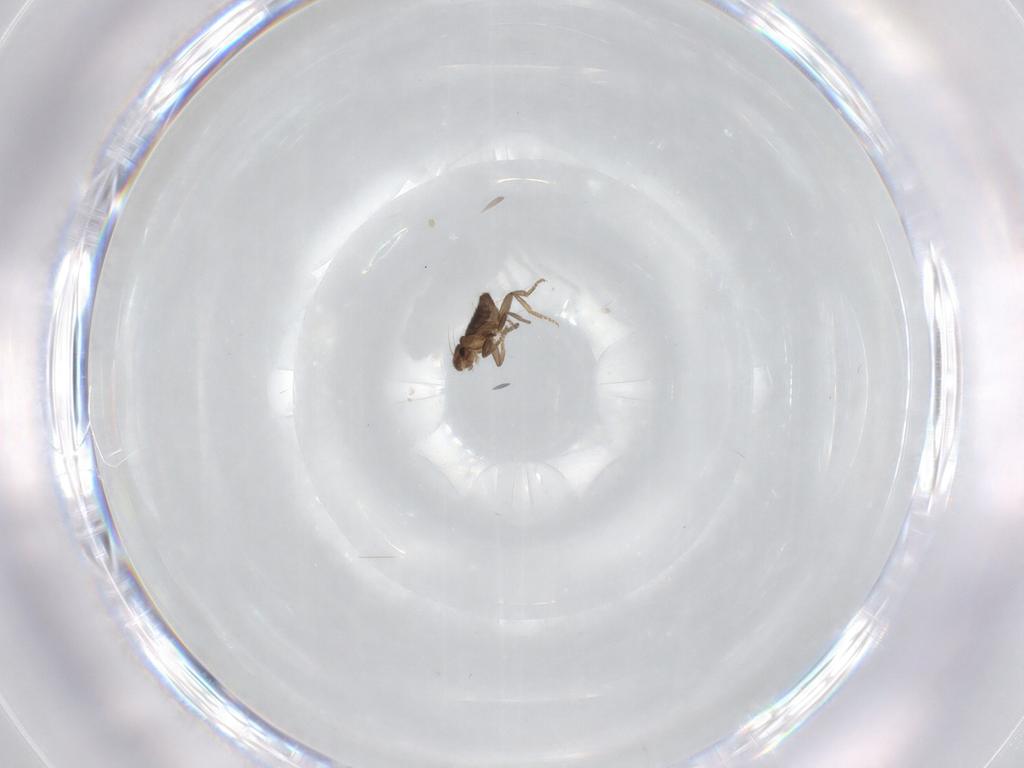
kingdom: Animalia
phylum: Arthropoda
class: Insecta
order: Diptera
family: Phoridae
